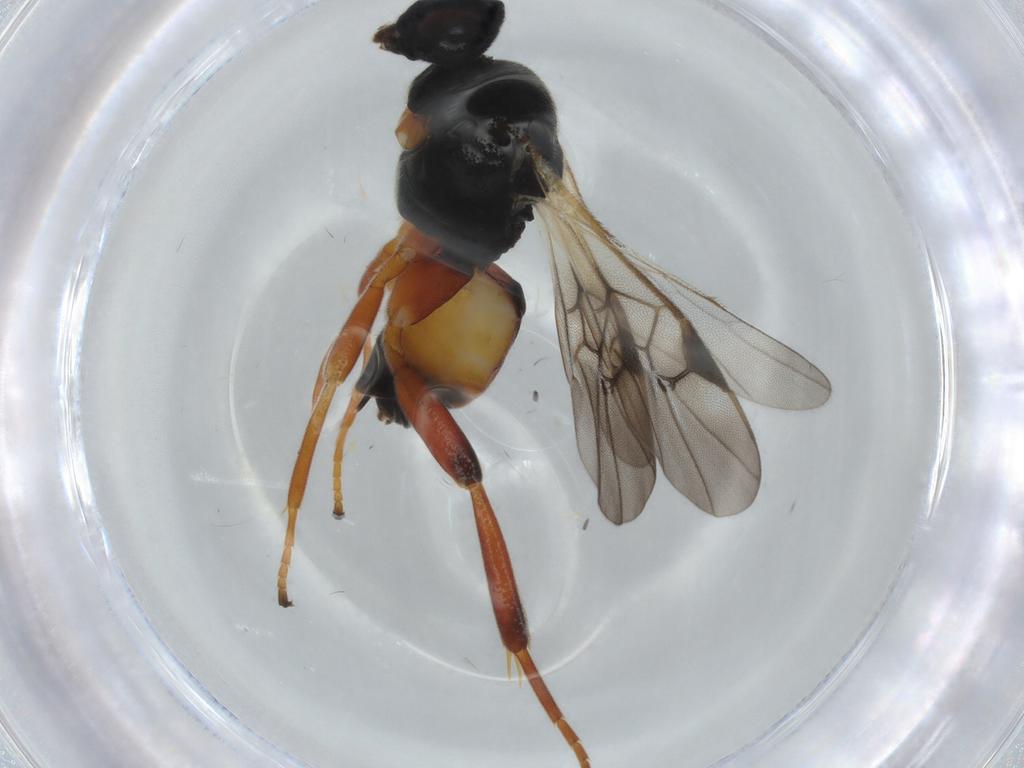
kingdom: Animalia
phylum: Arthropoda
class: Insecta
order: Hymenoptera
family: Braconidae
